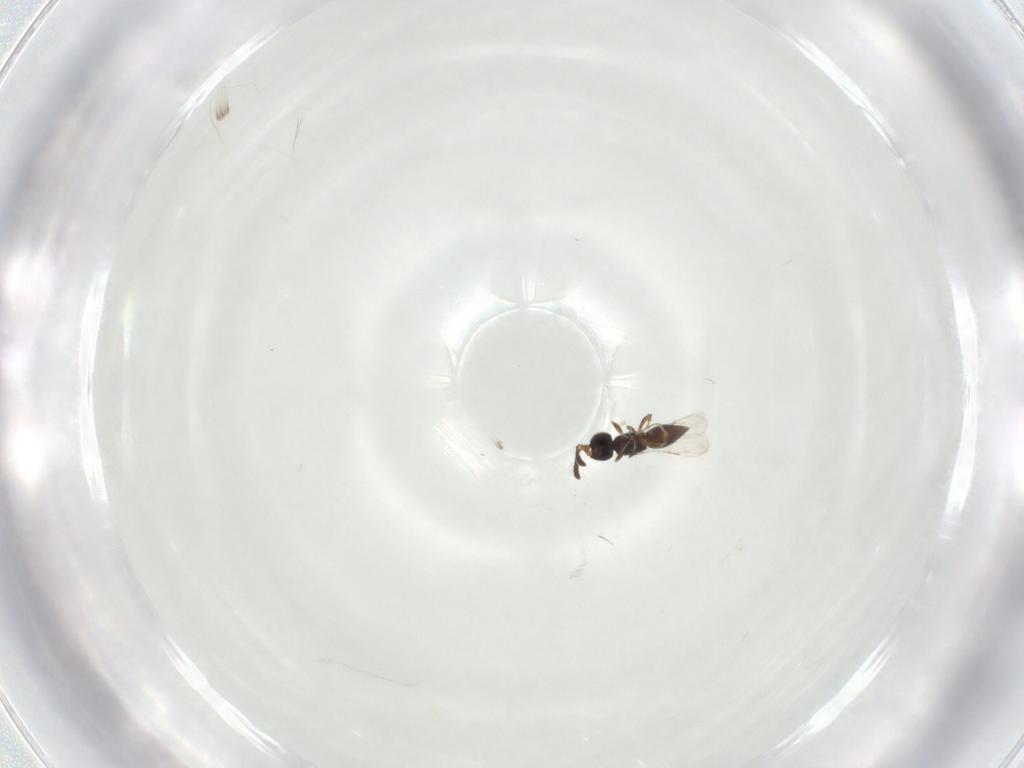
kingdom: Animalia
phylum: Arthropoda
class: Insecta
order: Hymenoptera
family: Ceraphronidae
